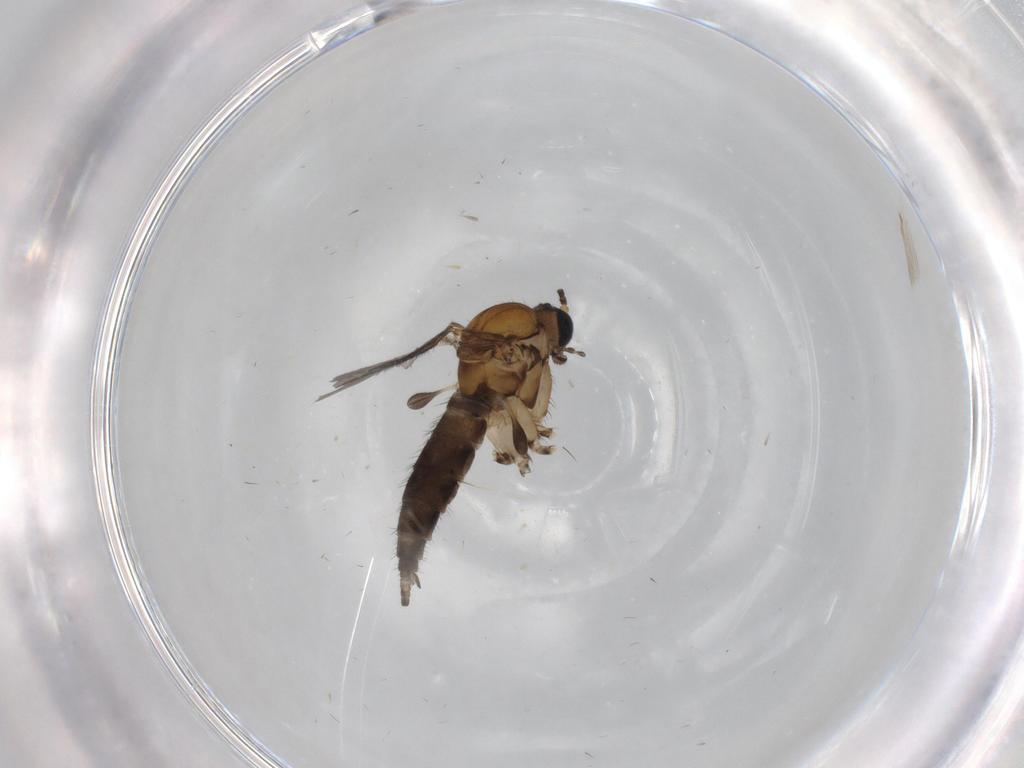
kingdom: Animalia
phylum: Arthropoda
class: Insecta
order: Diptera
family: Sciaridae
